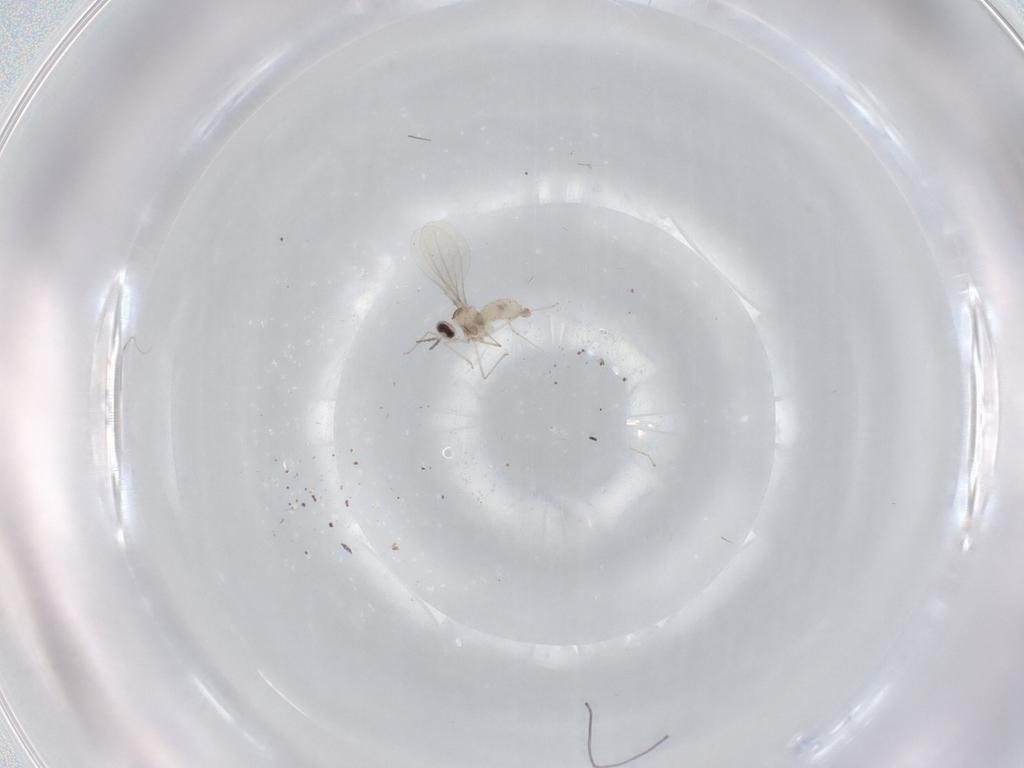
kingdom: Animalia
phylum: Arthropoda
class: Insecta
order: Diptera
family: Cecidomyiidae
